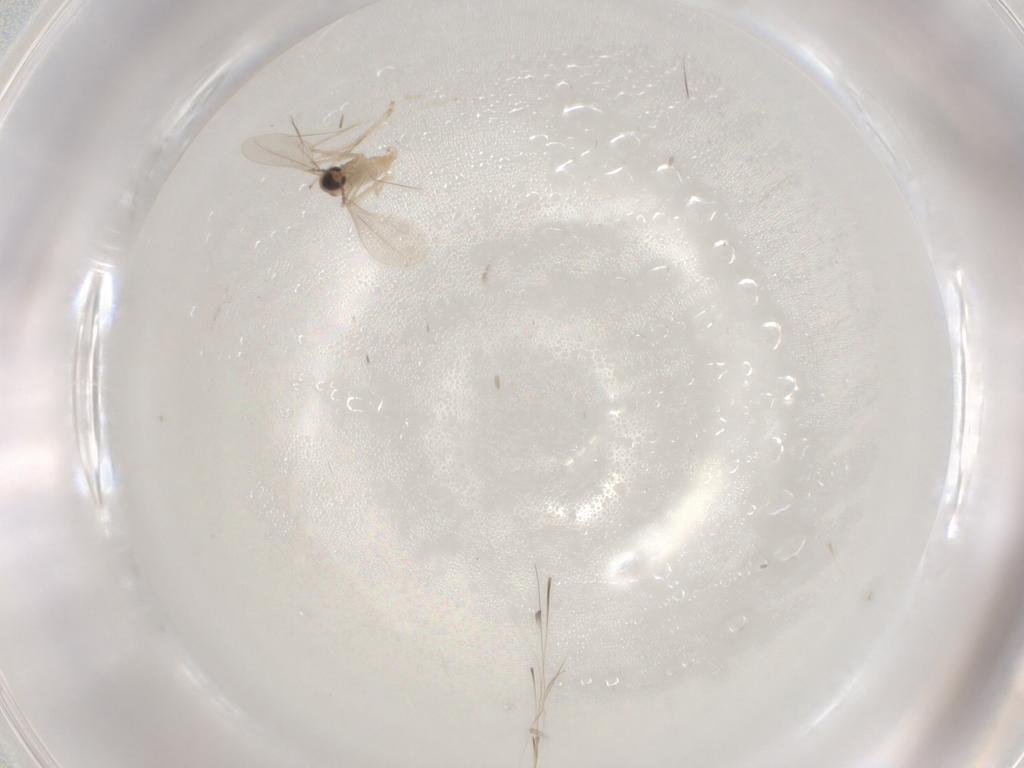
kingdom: Animalia
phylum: Arthropoda
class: Insecta
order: Diptera
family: Cecidomyiidae
